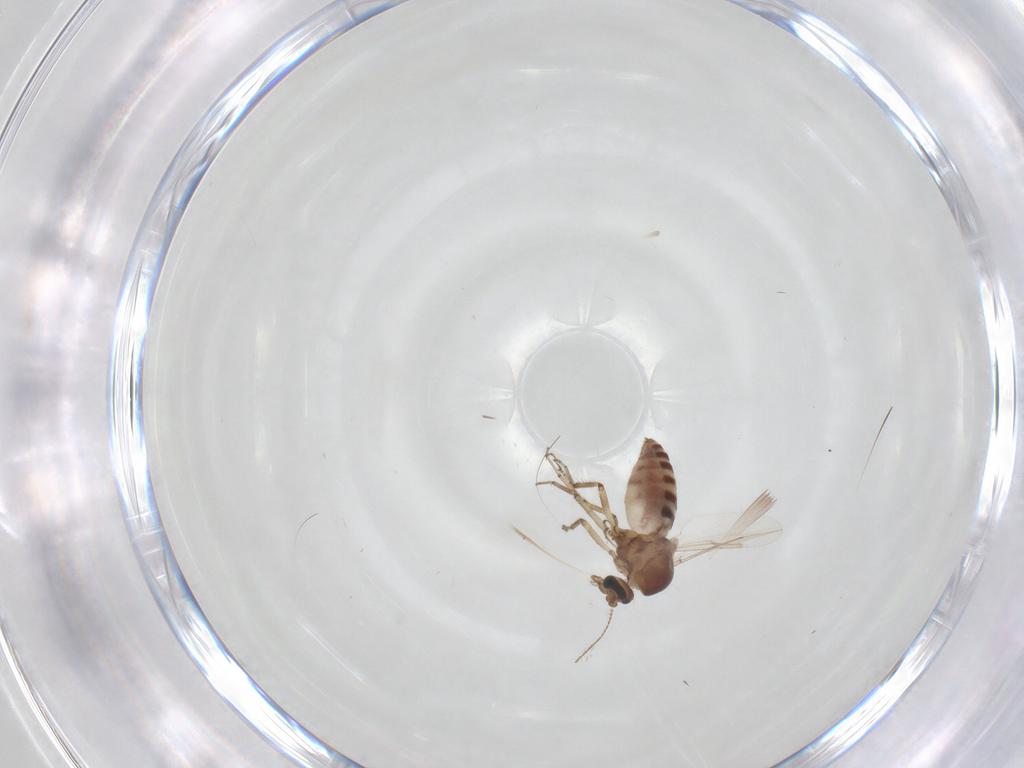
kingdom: Animalia
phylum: Arthropoda
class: Insecta
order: Diptera
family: Ceratopogonidae
